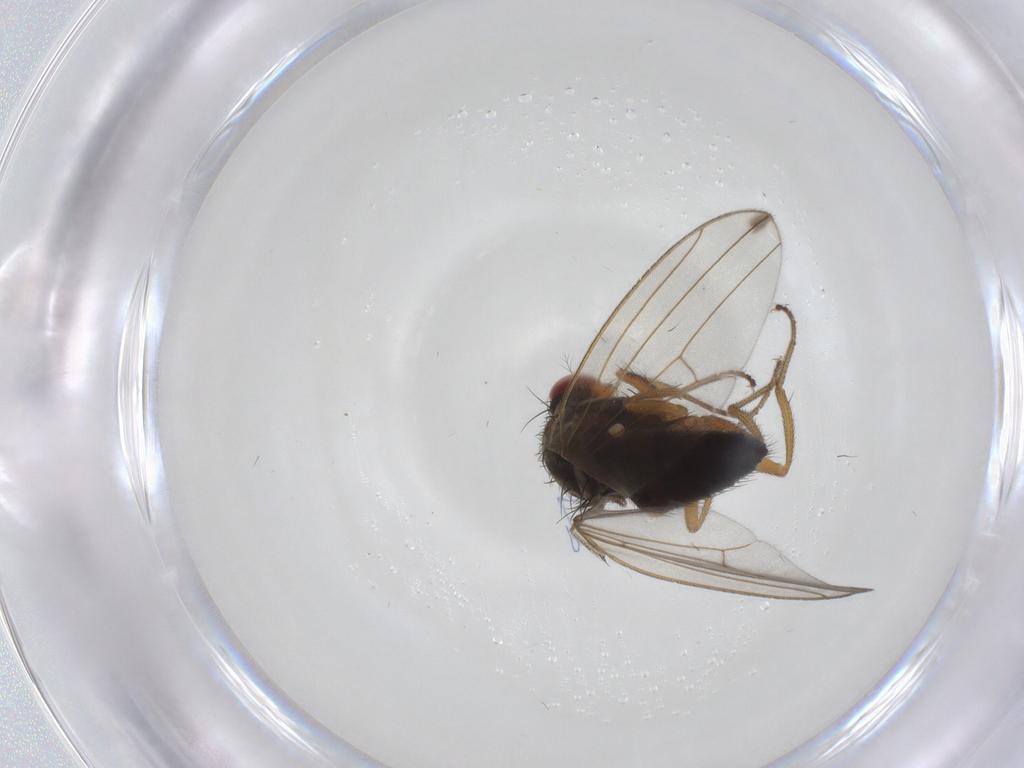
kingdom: Animalia
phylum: Arthropoda
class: Insecta
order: Diptera
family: Drosophilidae
